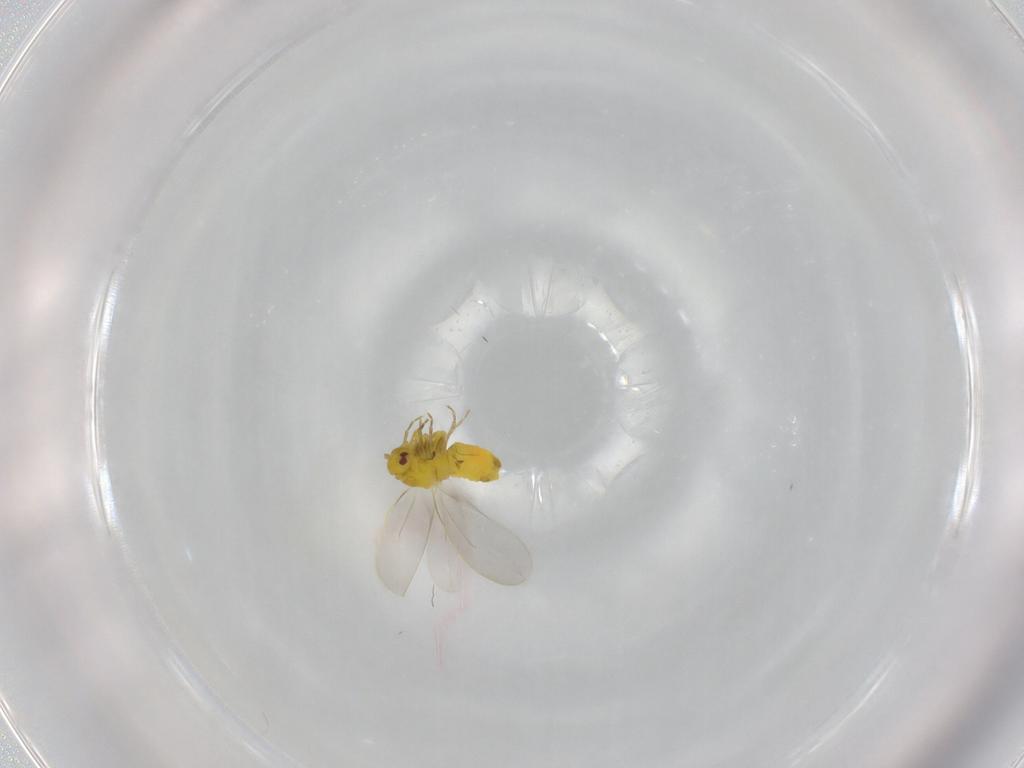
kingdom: Animalia
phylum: Arthropoda
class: Insecta
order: Hemiptera
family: Aleyrodidae
